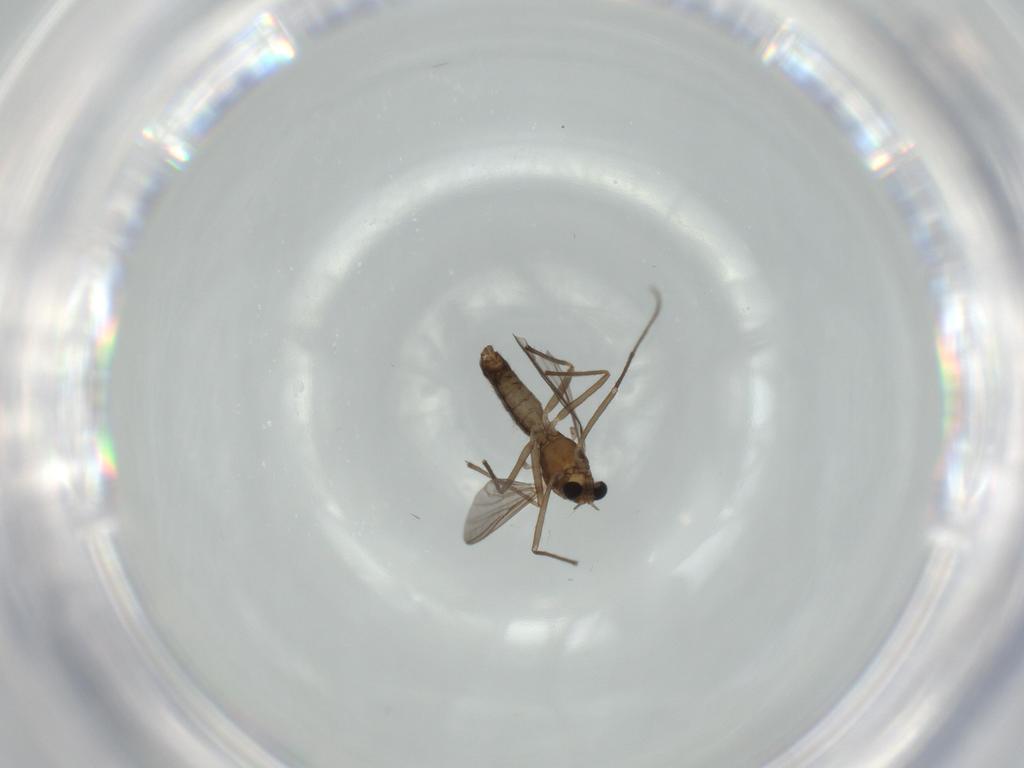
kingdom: Animalia
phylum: Arthropoda
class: Insecta
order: Diptera
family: Chironomidae
